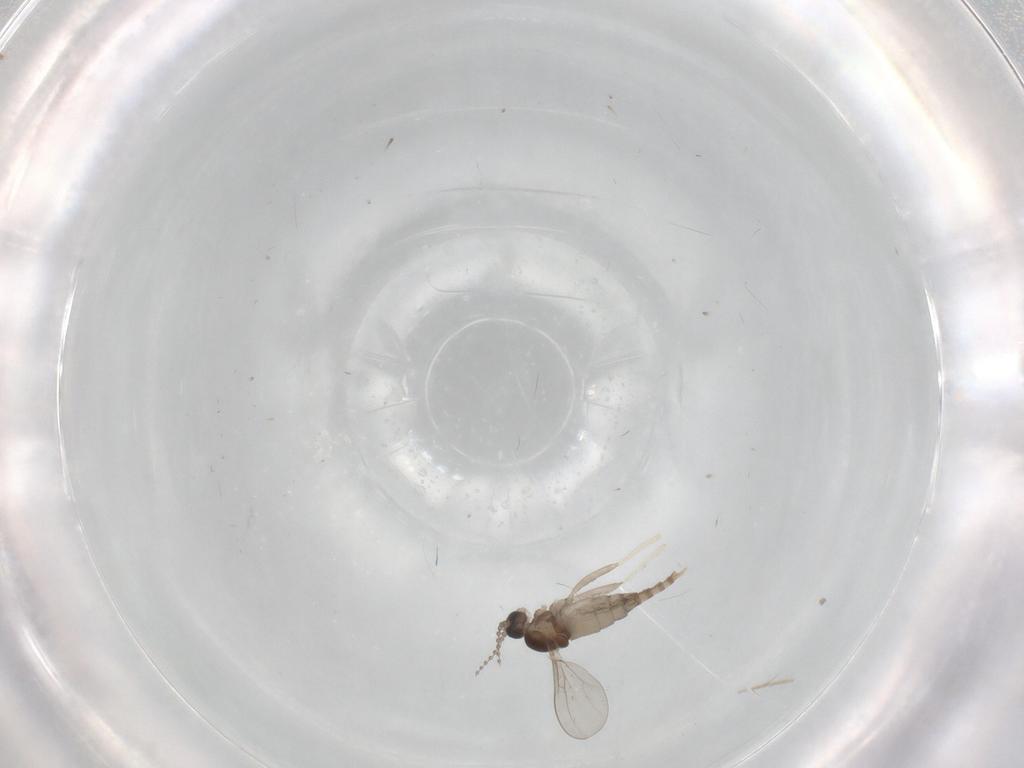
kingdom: Animalia
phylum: Arthropoda
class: Insecta
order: Diptera
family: Cecidomyiidae
